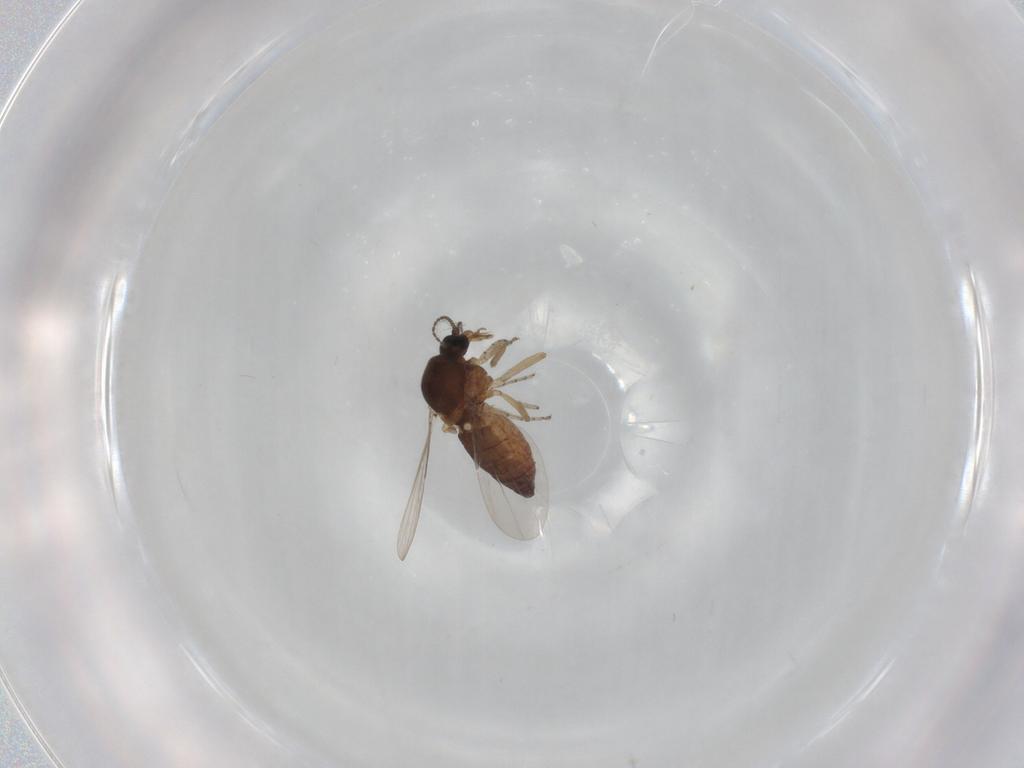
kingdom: Animalia
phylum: Arthropoda
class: Insecta
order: Diptera
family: Ceratopogonidae
